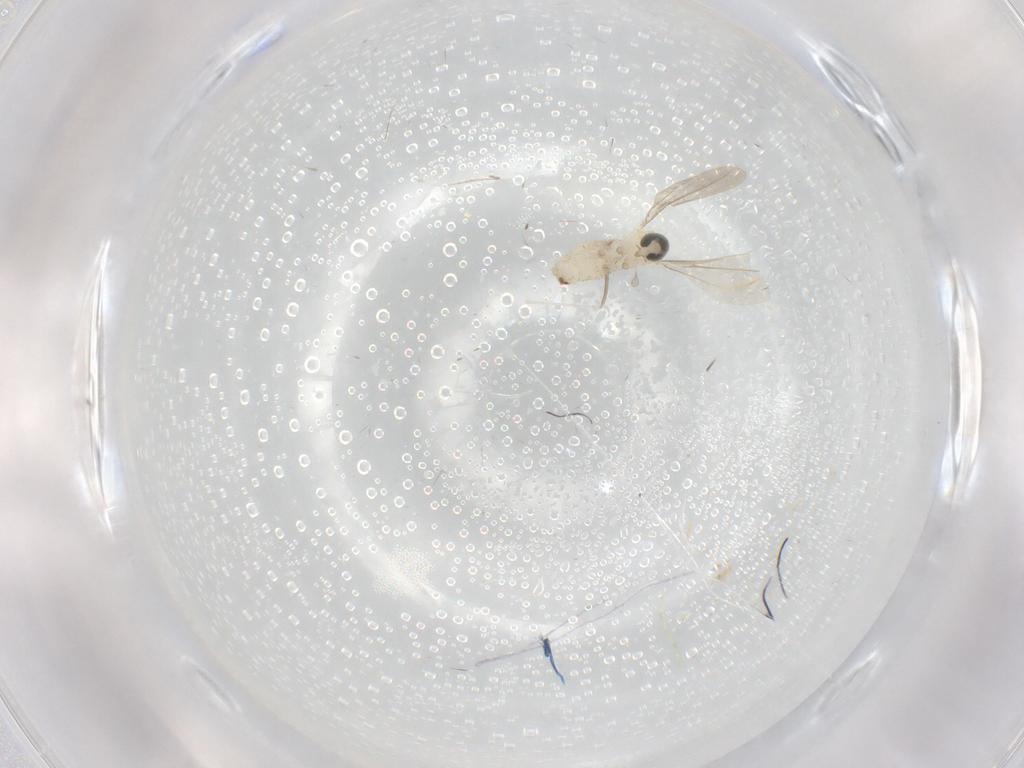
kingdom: Animalia
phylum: Arthropoda
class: Insecta
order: Diptera
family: Cecidomyiidae
